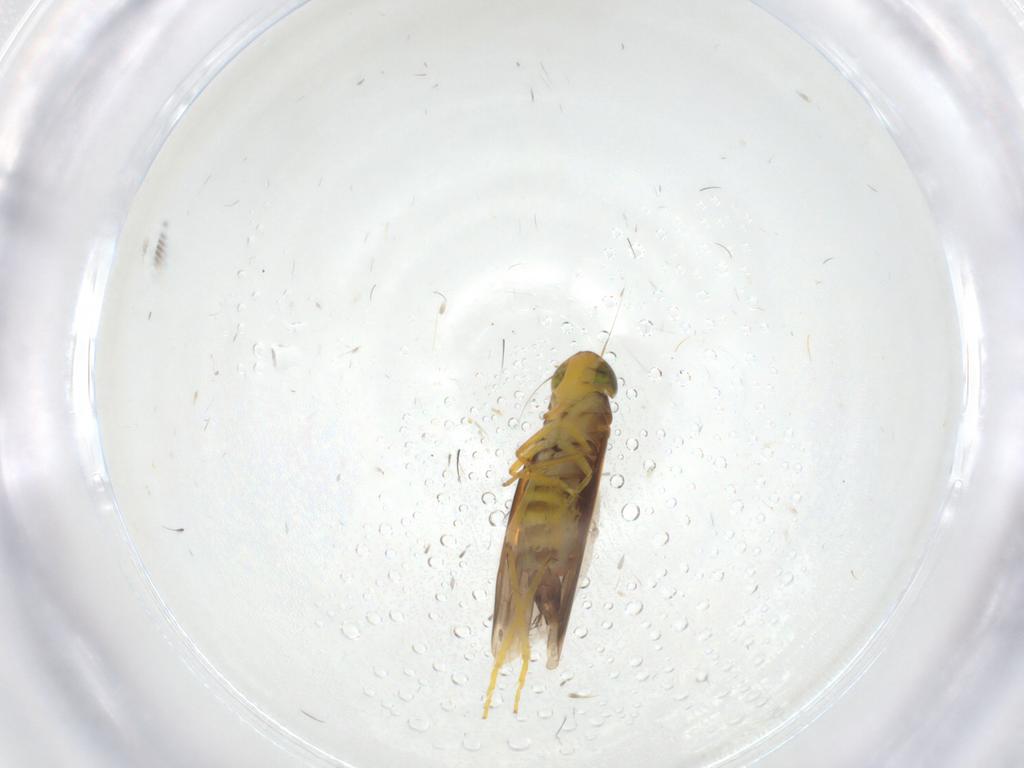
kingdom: Animalia
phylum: Arthropoda
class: Insecta
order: Hemiptera
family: Cicadellidae
